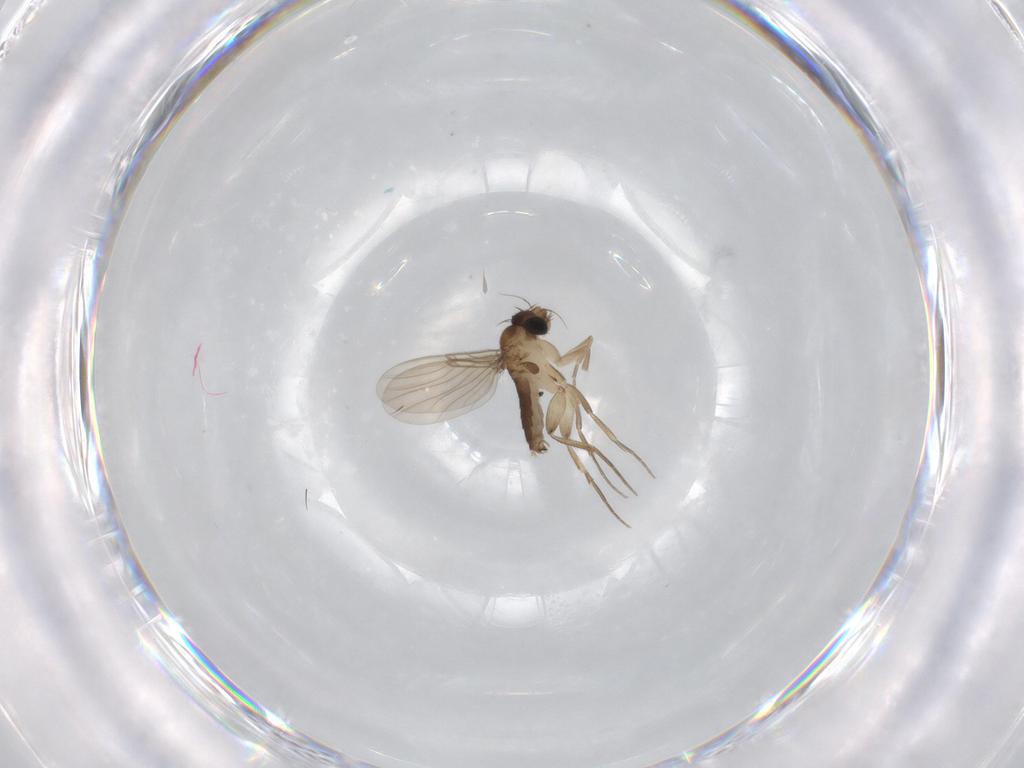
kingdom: Animalia
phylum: Arthropoda
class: Insecta
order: Diptera
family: Phoridae
